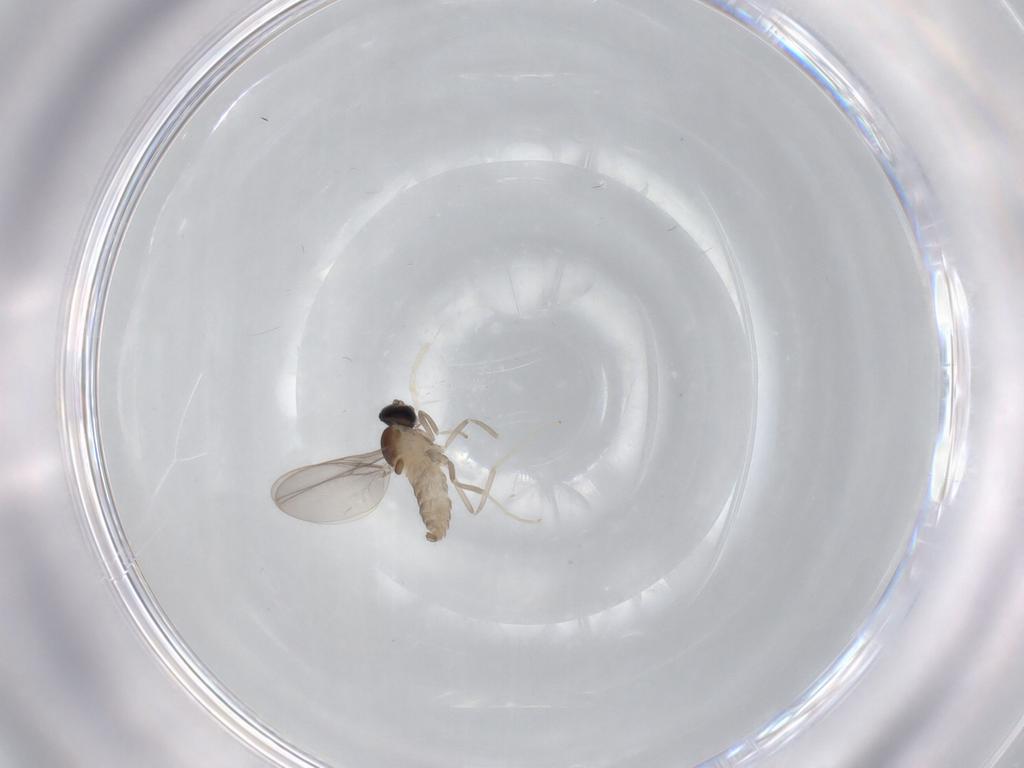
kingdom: Animalia
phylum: Arthropoda
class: Insecta
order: Diptera
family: Cecidomyiidae
